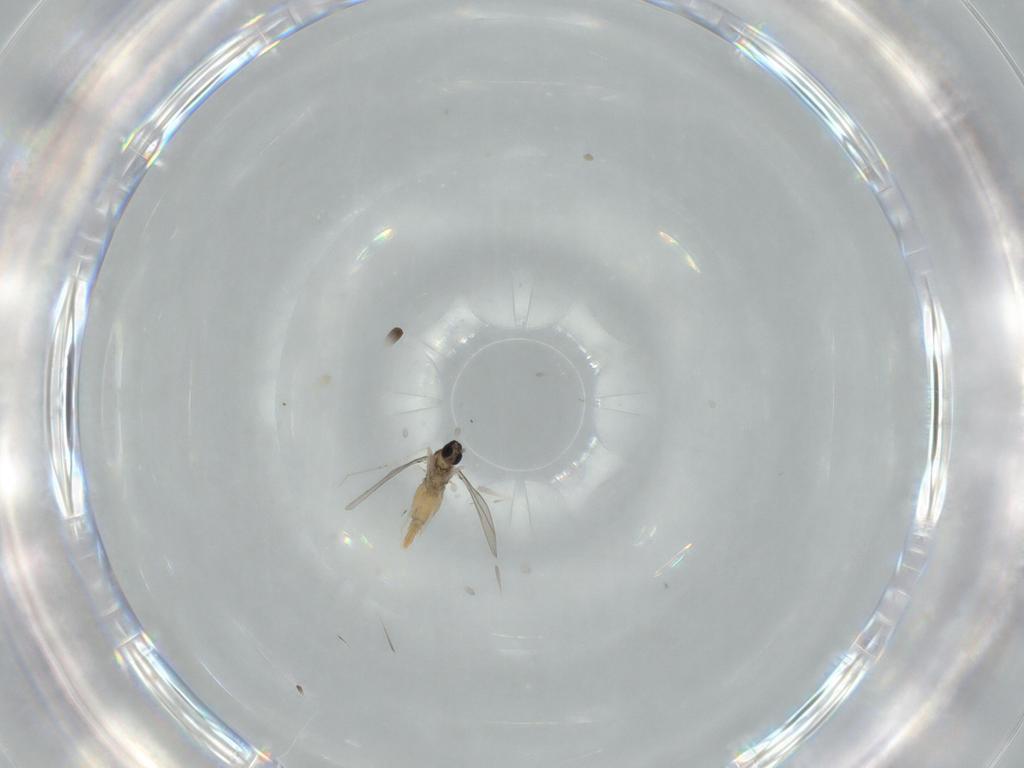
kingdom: Animalia
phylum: Arthropoda
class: Insecta
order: Diptera
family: Cecidomyiidae
